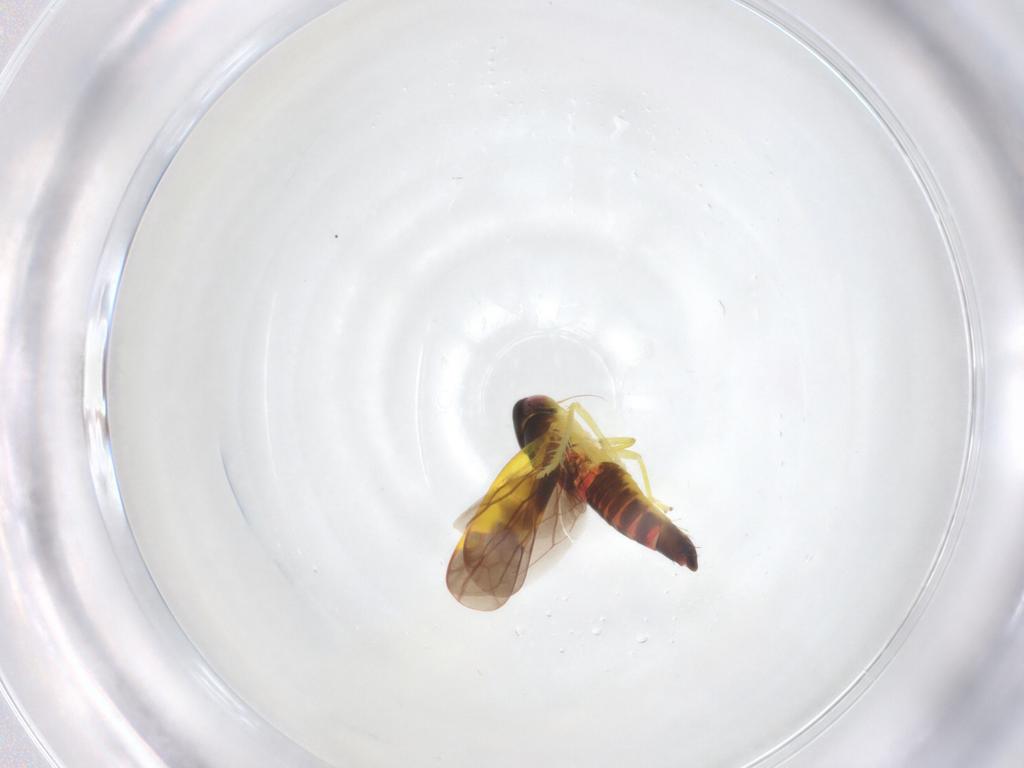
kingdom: Animalia
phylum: Arthropoda
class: Insecta
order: Hemiptera
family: Cicadellidae
